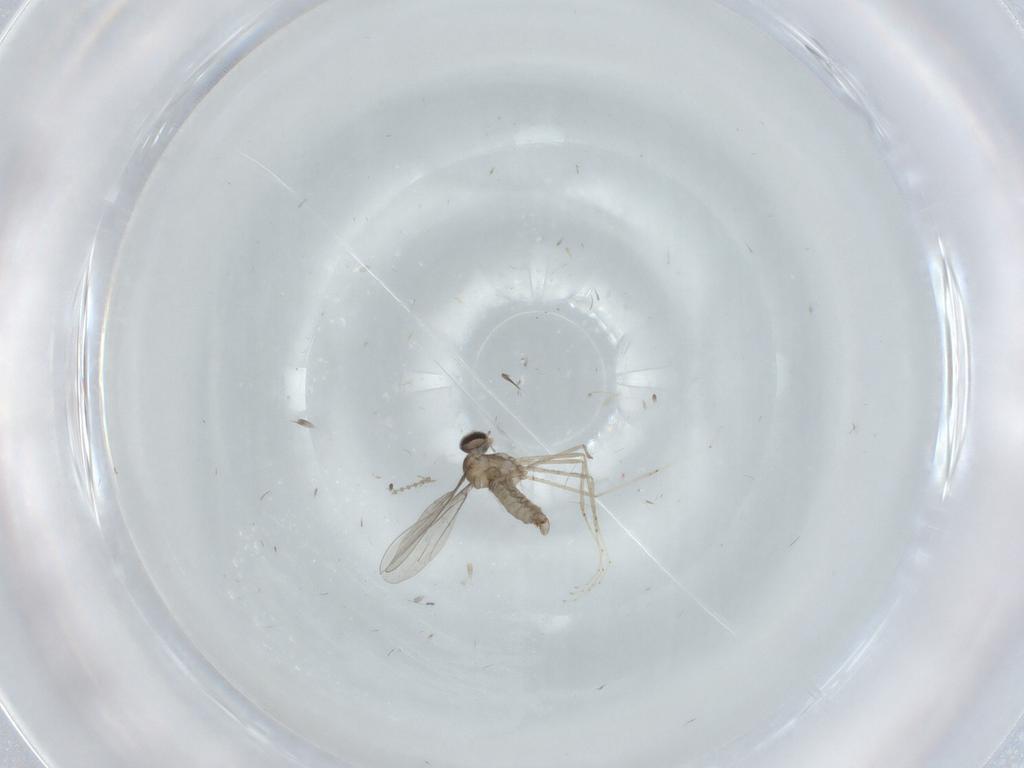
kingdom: Animalia
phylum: Arthropoda
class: Insecta
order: Diptera
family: Cecidomyiidae
